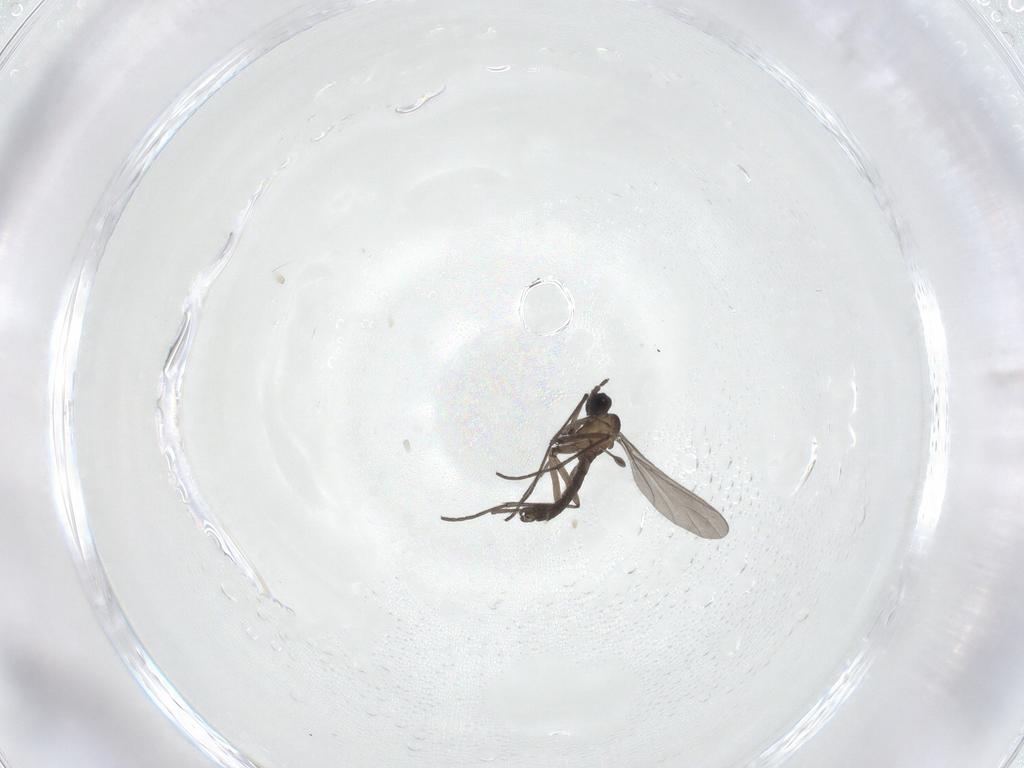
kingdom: Animalia
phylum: Arthropoda
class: Insecta
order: Diptera
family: Sciaridae
